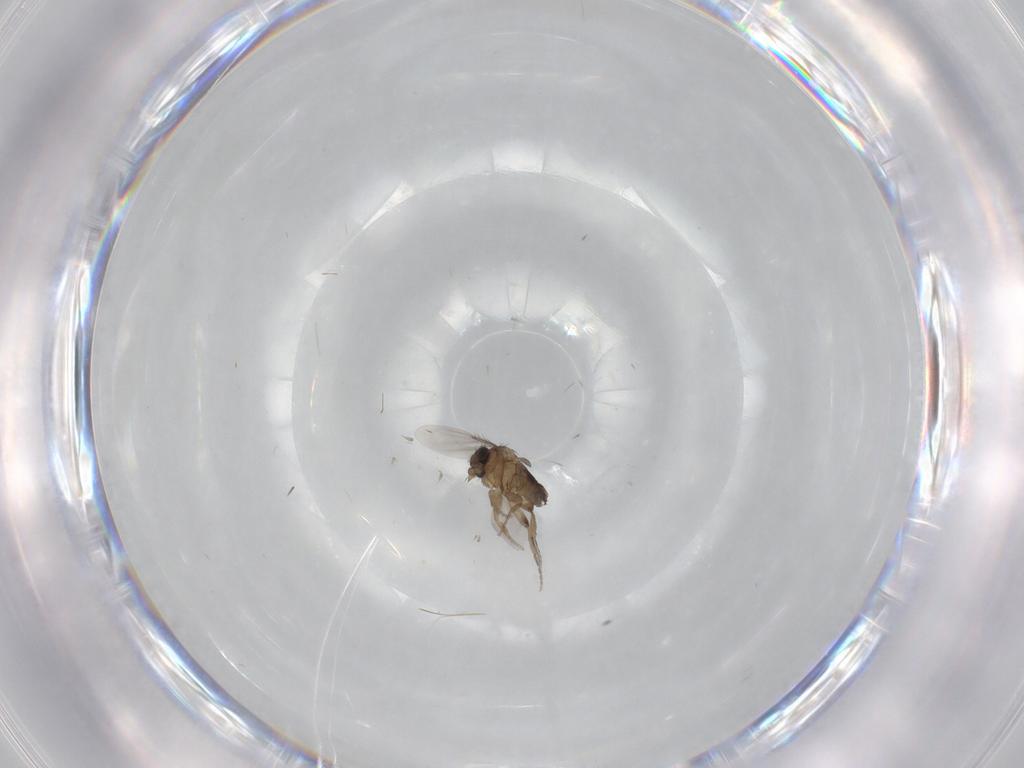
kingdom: Animalia
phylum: Arthropoda
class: Insecta
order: Diptera
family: Phoridae
